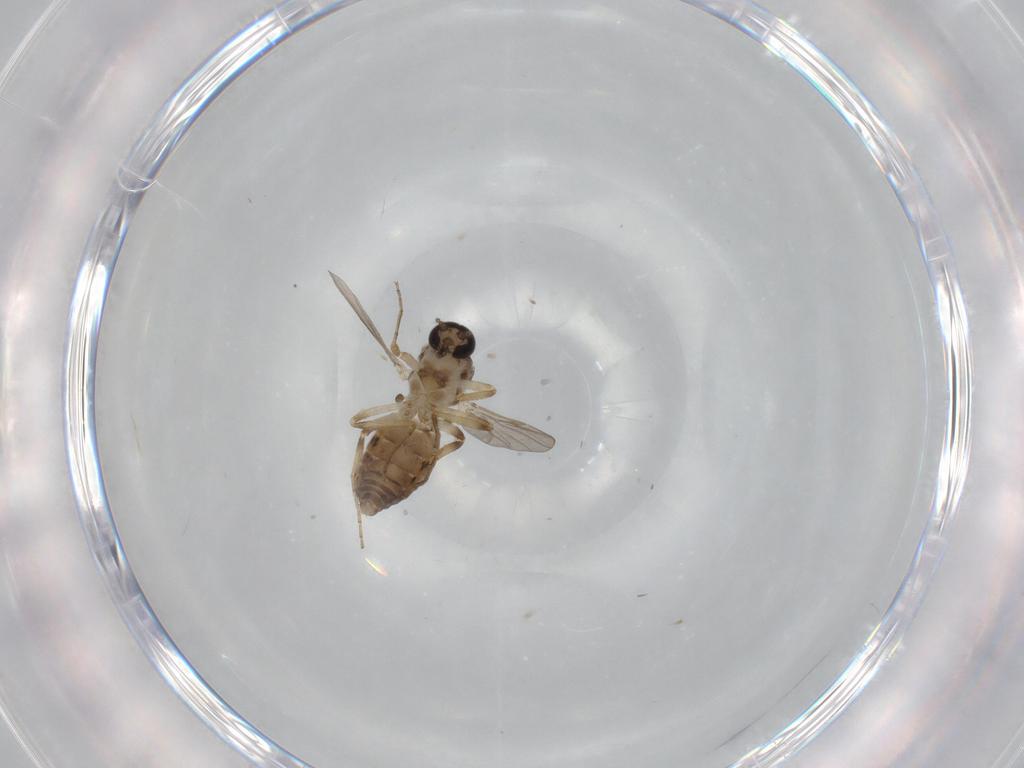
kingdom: Animalia
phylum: Arthropoda
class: Insecta
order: Diptera
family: Ceratopogonidae
